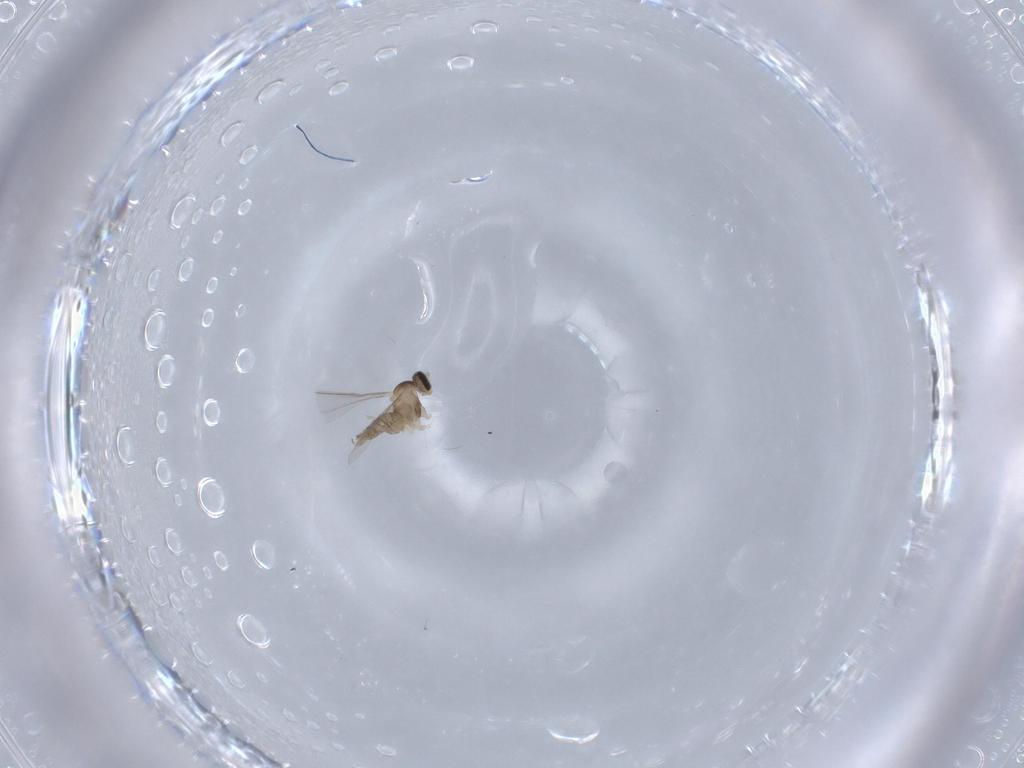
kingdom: Animalia
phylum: Arthropoda
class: Insecta
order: Diptera
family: Cecidomyiidae
